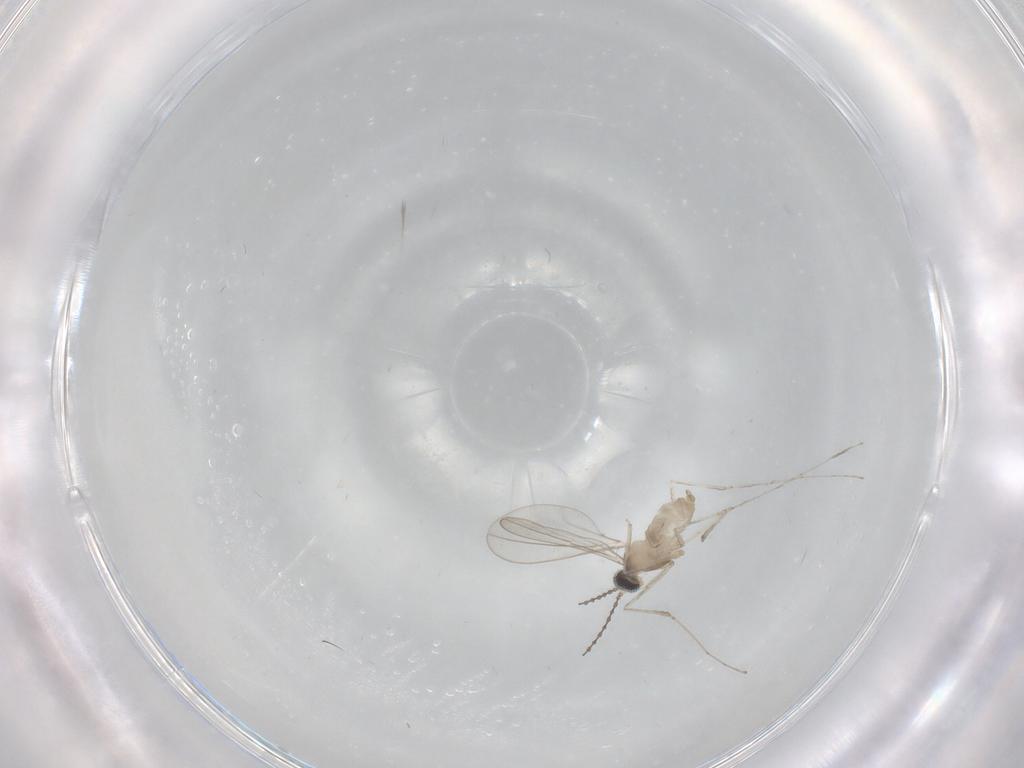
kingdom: Animalia
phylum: Arthropoda
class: Insecta
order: Diptera
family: Cecidomyiidae
